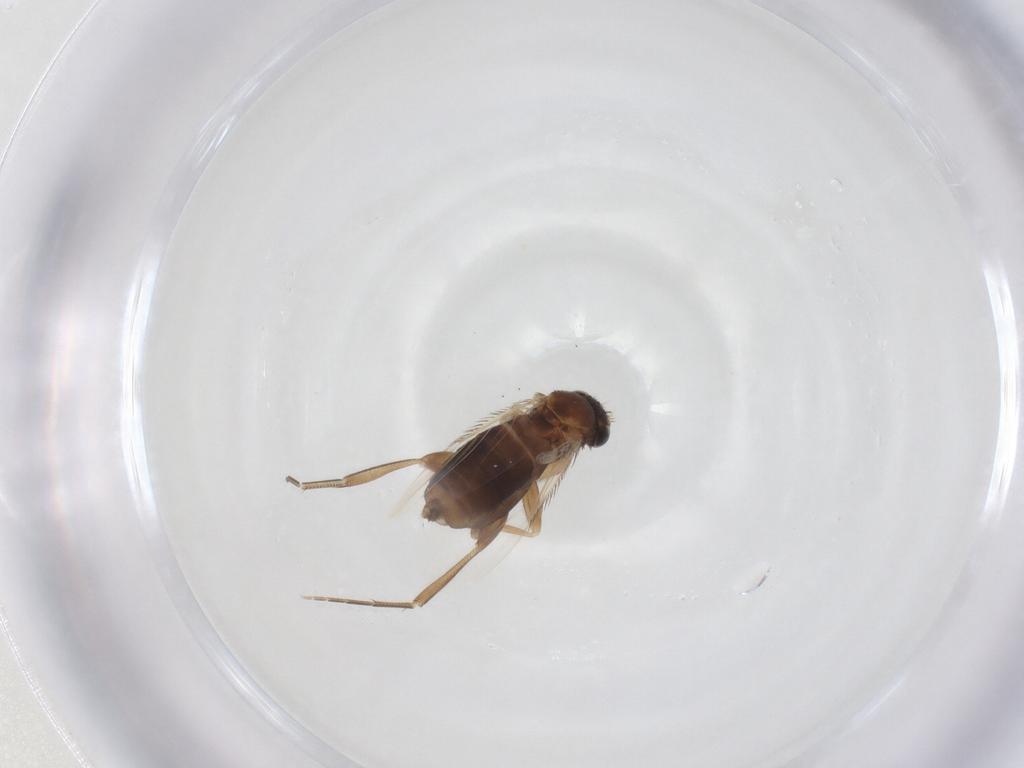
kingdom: Animalia
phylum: Arthropoda
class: Insecta
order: Diptera
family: Phoridae
